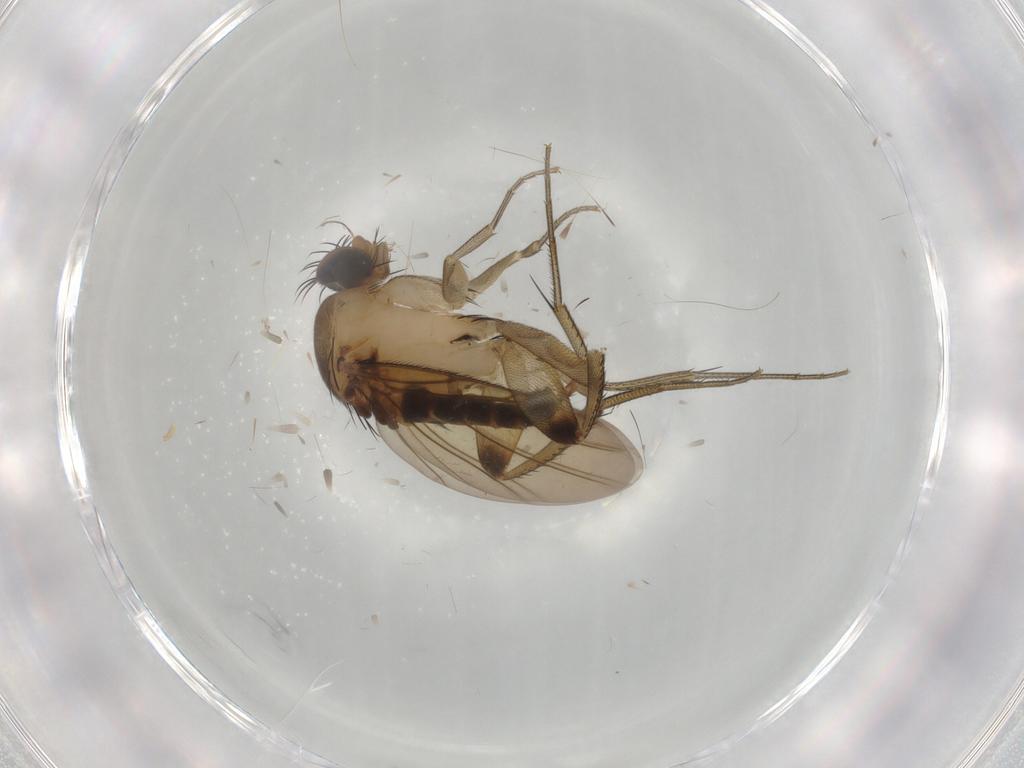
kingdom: Animalia
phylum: Arthropoda
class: Insecta
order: Diptera
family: Phoridae
